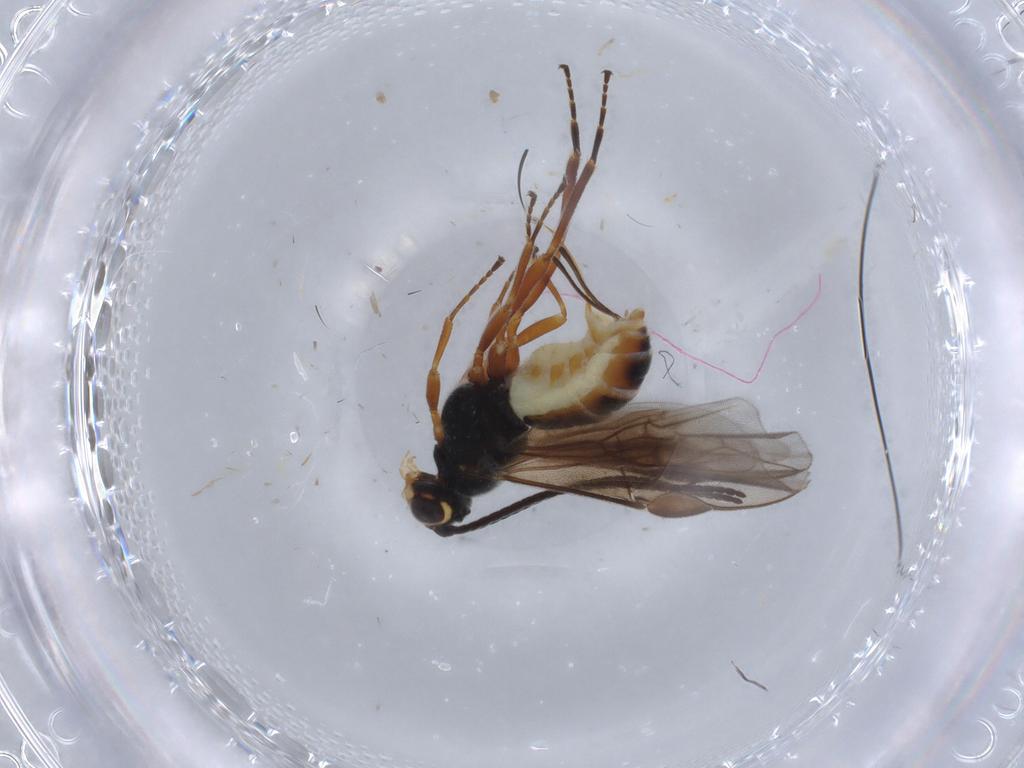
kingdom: Animalia
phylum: Arthropoda
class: Insecta
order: Hymenoptera
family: Braconidae
